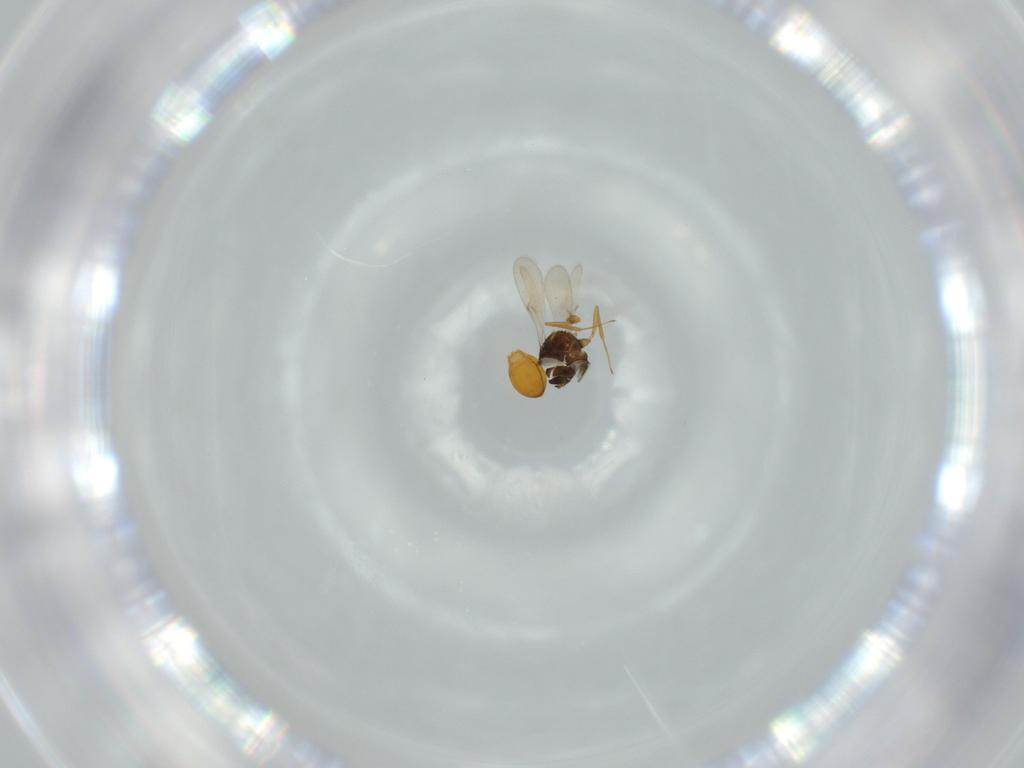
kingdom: Animalia
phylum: Arthropoda
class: Insecta
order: Hymenoptera
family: Scelionidae
